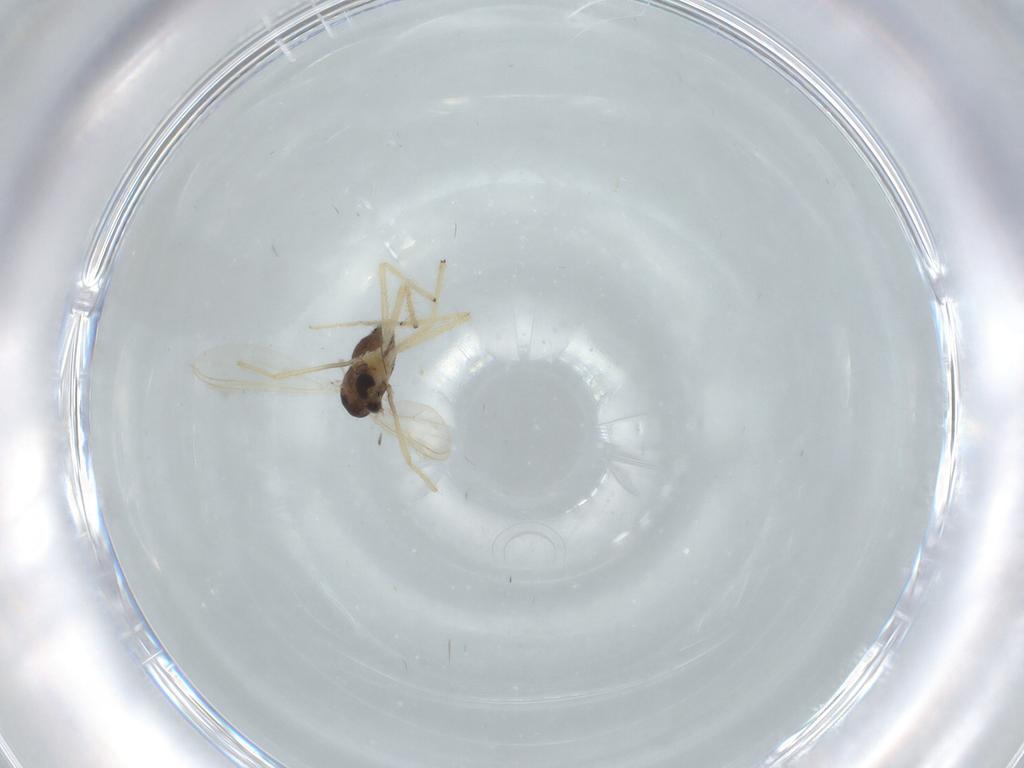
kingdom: Animalia
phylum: Arthropoda
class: Insecta
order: Diptera
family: Chironomidae
